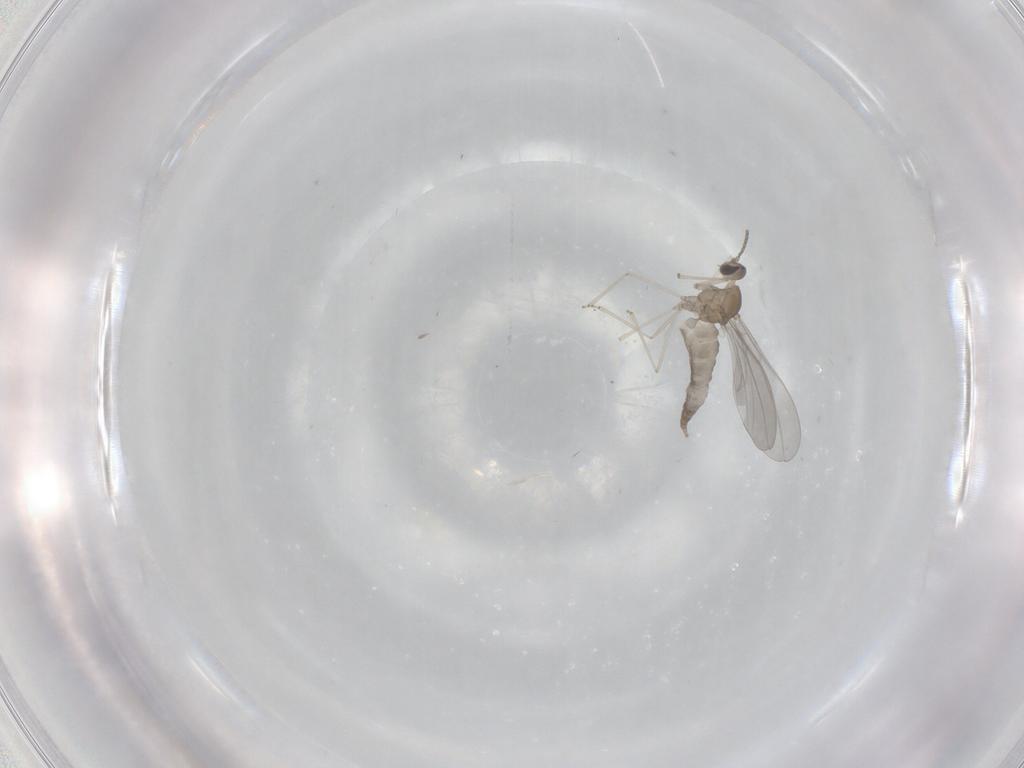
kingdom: Animalia
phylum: Arthropoda
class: Insecta
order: Diptera
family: Cecidomyiidae
